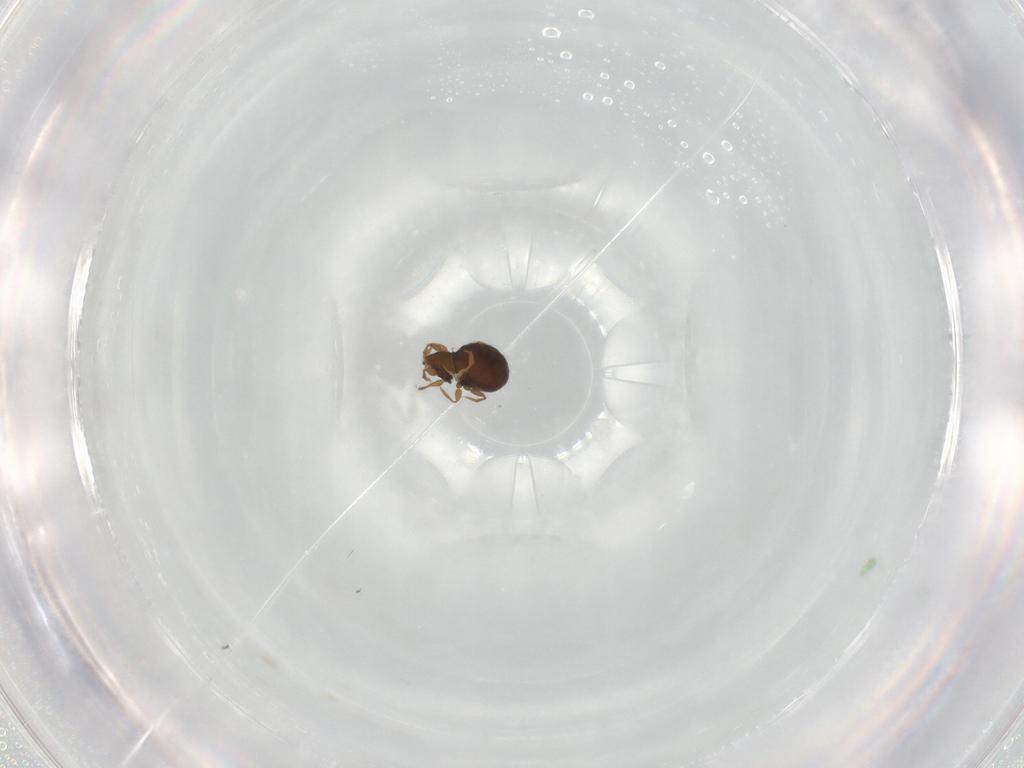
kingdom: Animalia
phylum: Arthropoda
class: Arachnida
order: Sarcoptiformes
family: Oribatulidae
